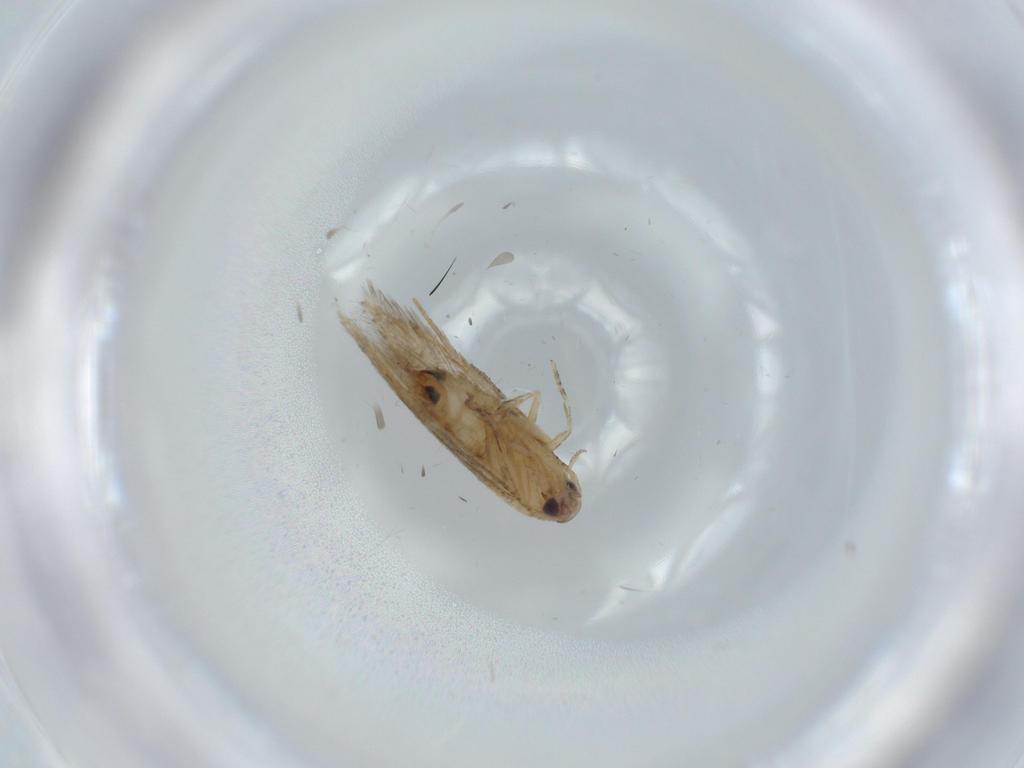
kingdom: Animalia
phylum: Arthropoda
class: Insecta
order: Lepidoptera
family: Cosmopterigidae
